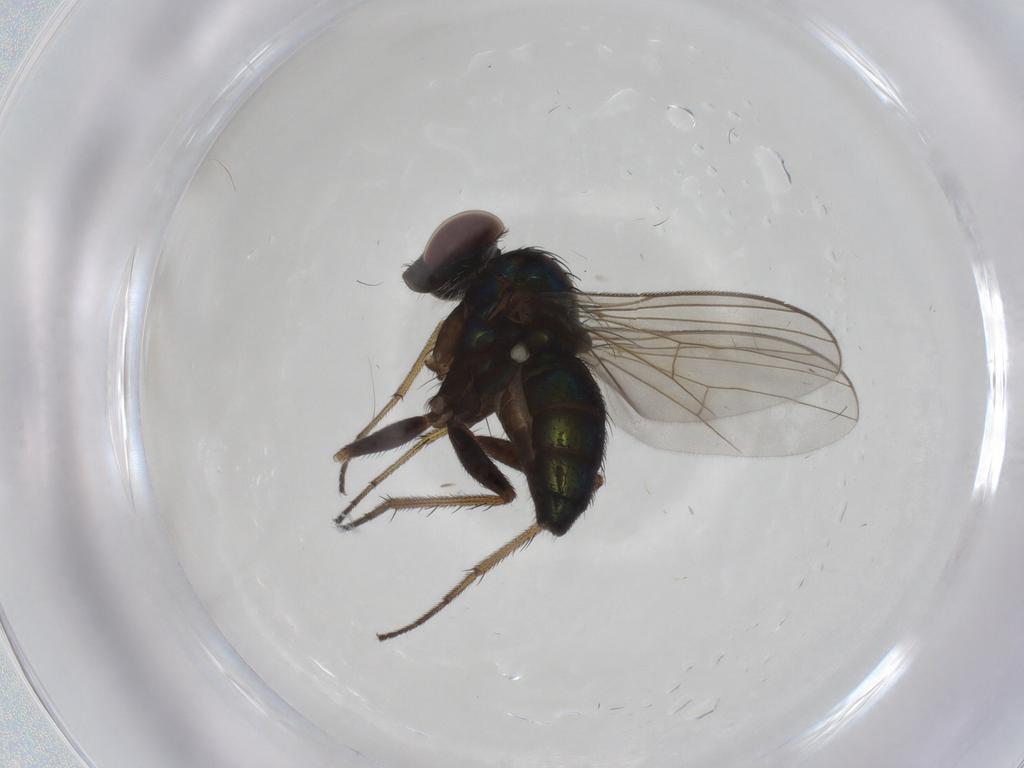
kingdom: Animalia
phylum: Arthropoda
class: Insecta
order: Diptera
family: Dolichopodidae
